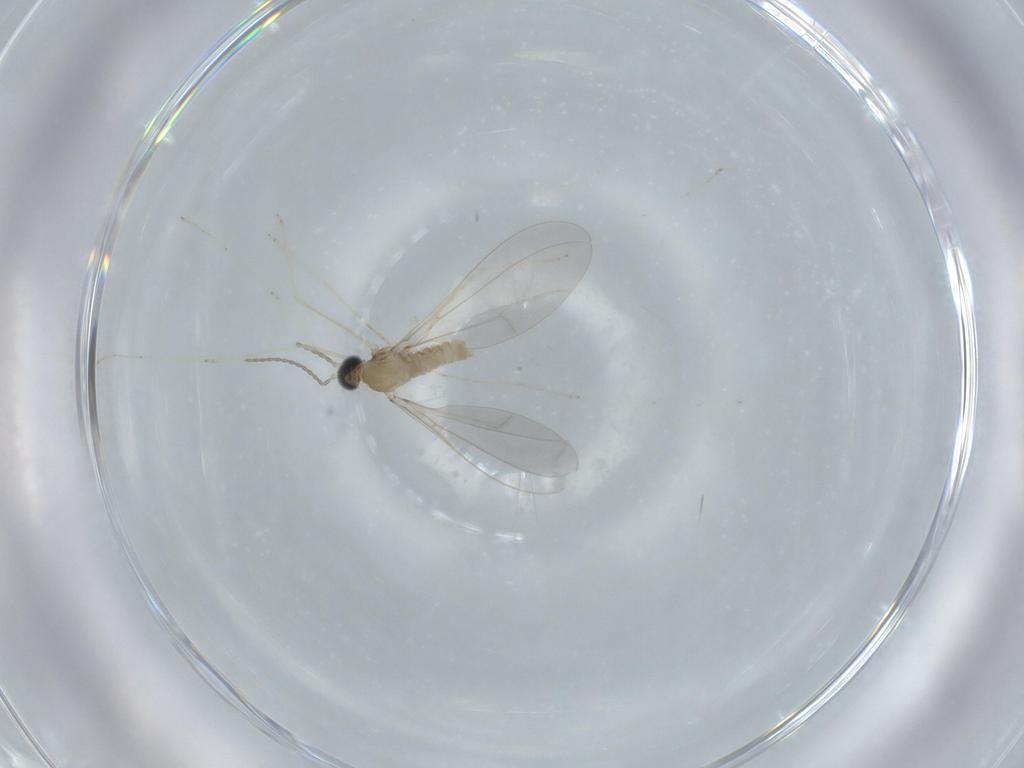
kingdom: Animalia
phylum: Arthropoda
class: Insecta
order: Diptera
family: Cecidomyiidae
